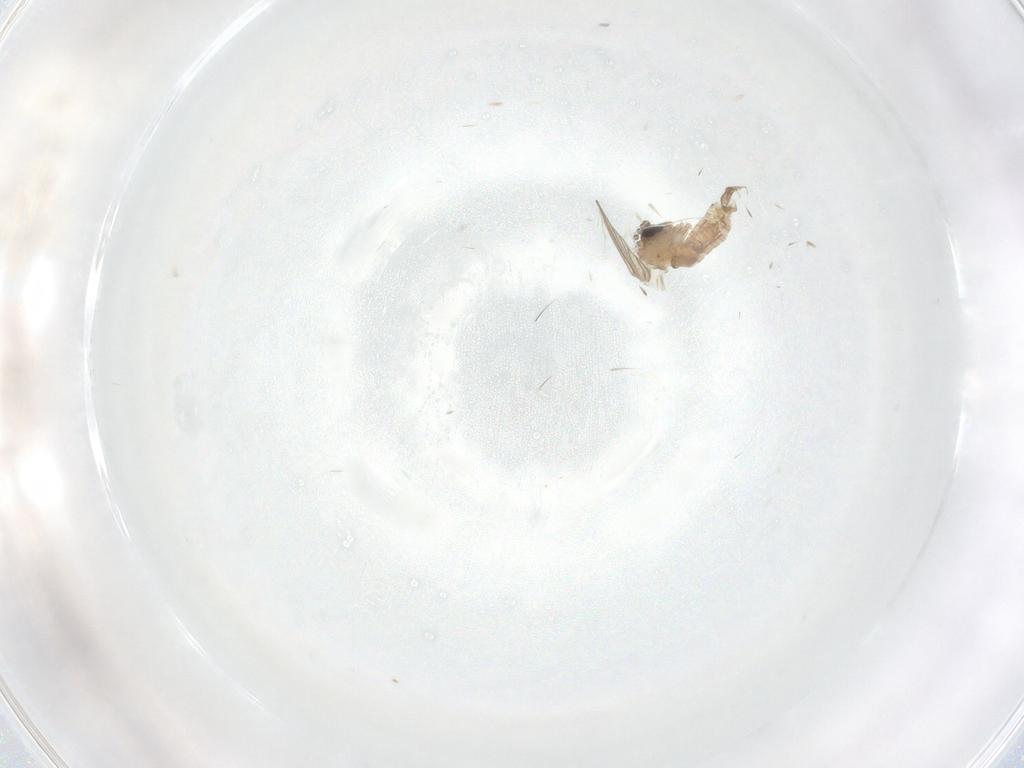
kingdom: Animalia
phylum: Arthropoda
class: Insecta
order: Diptera
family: Psychodidae
